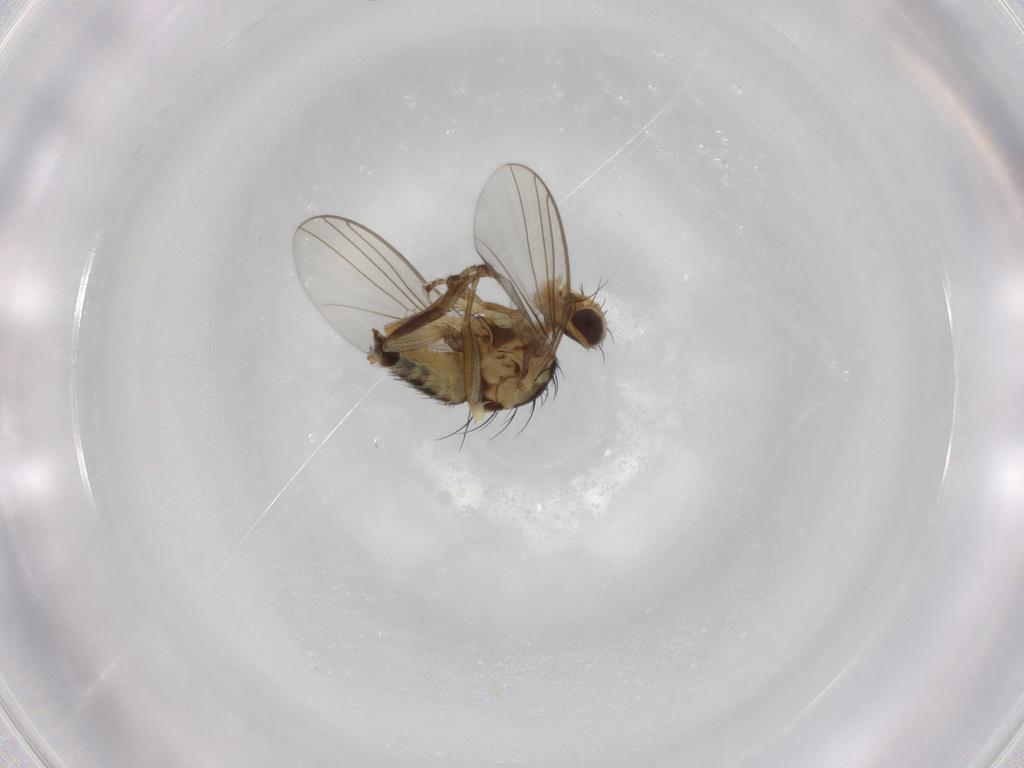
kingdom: Animalia
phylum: Arthropoda
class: Insecta
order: Diptera
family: Agromyzidae
